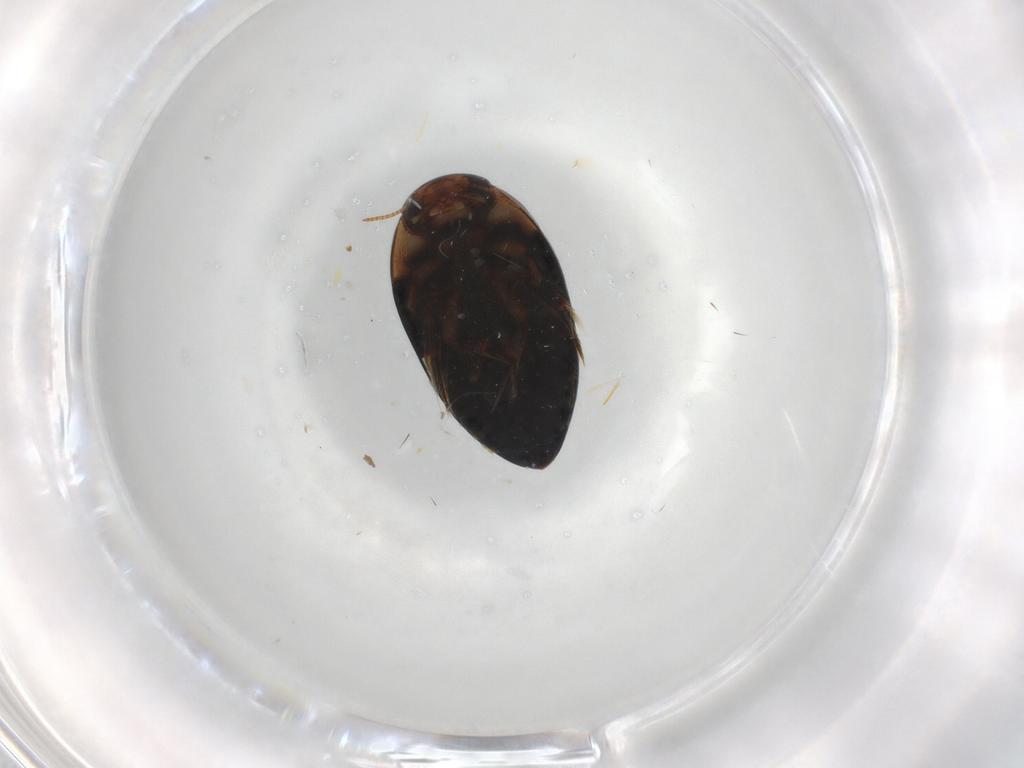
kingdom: Animalia
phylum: Arthropoda
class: Insecta
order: Coleoptera
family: Noteridae
